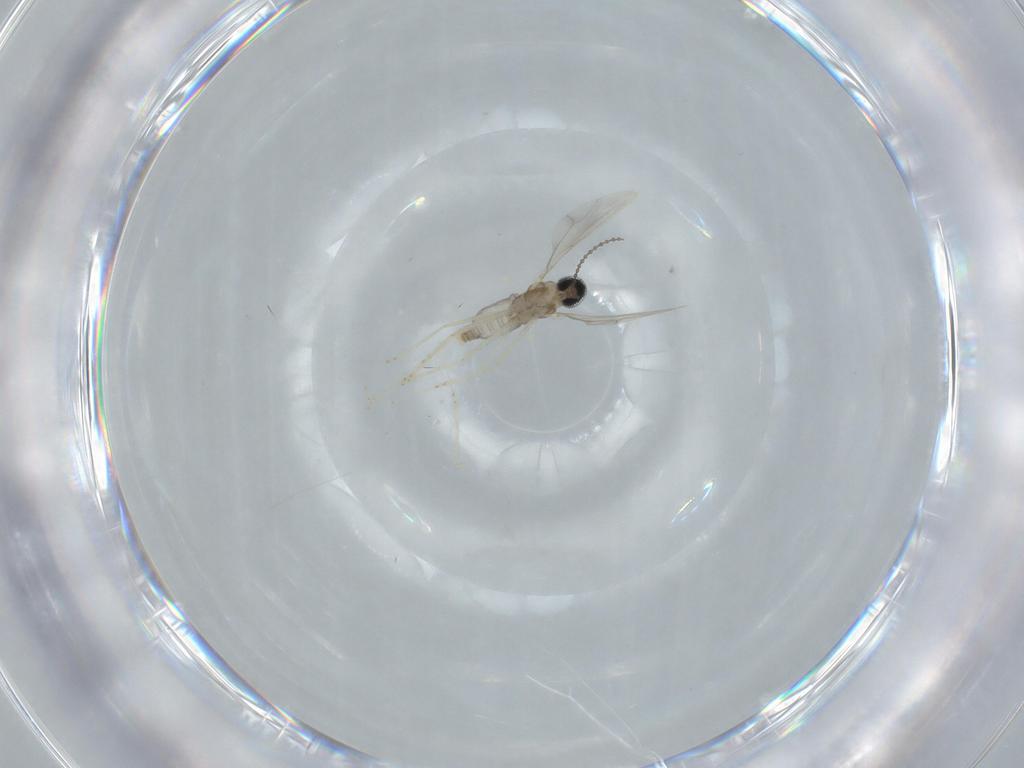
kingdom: Animalia
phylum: Arthropoda
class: Insecta
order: Diptera
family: Cecidomyiidae
